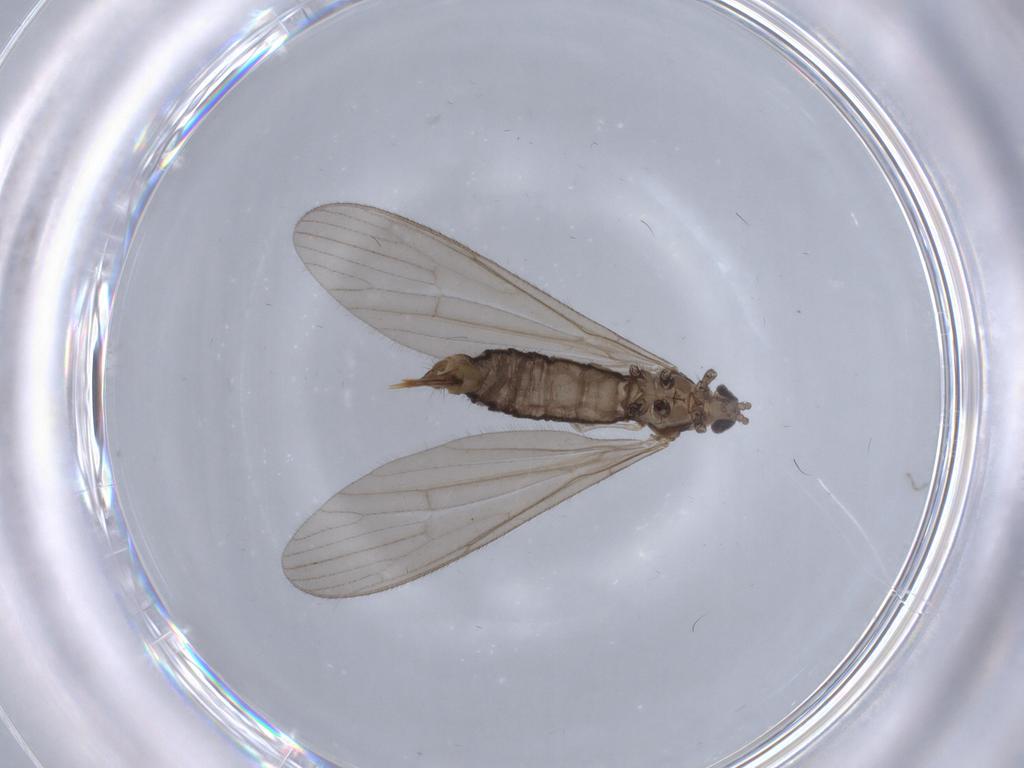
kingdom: Animalia
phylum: Arthropoda
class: Insecta
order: Diptera
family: Limoniidae
